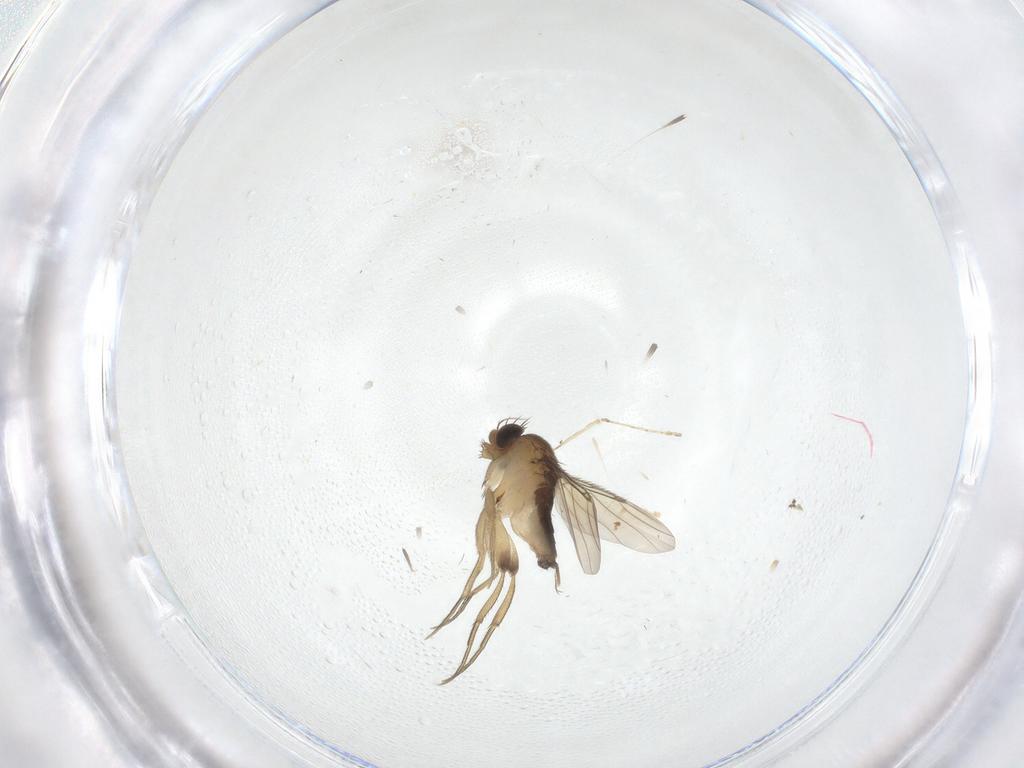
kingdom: Animalia
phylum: Arthropoda
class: Insecta
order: Diptera
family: Phoridae
